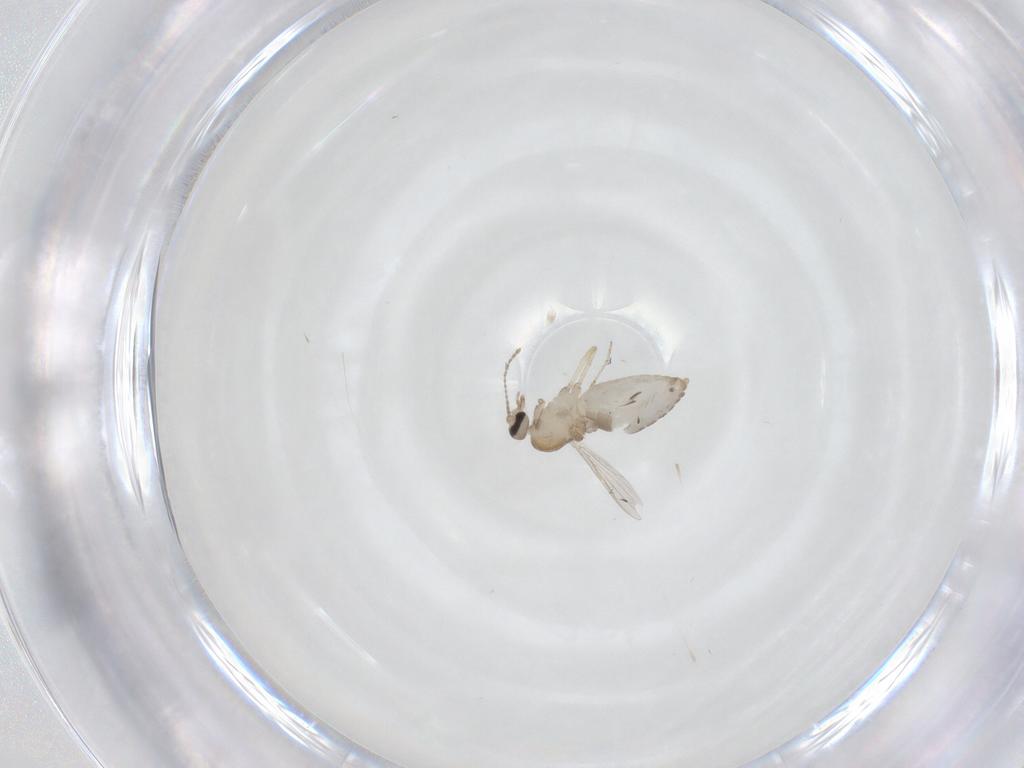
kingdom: Animalia
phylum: Arthropoda
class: Insecta
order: Diptera
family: Ceratopogonidae
